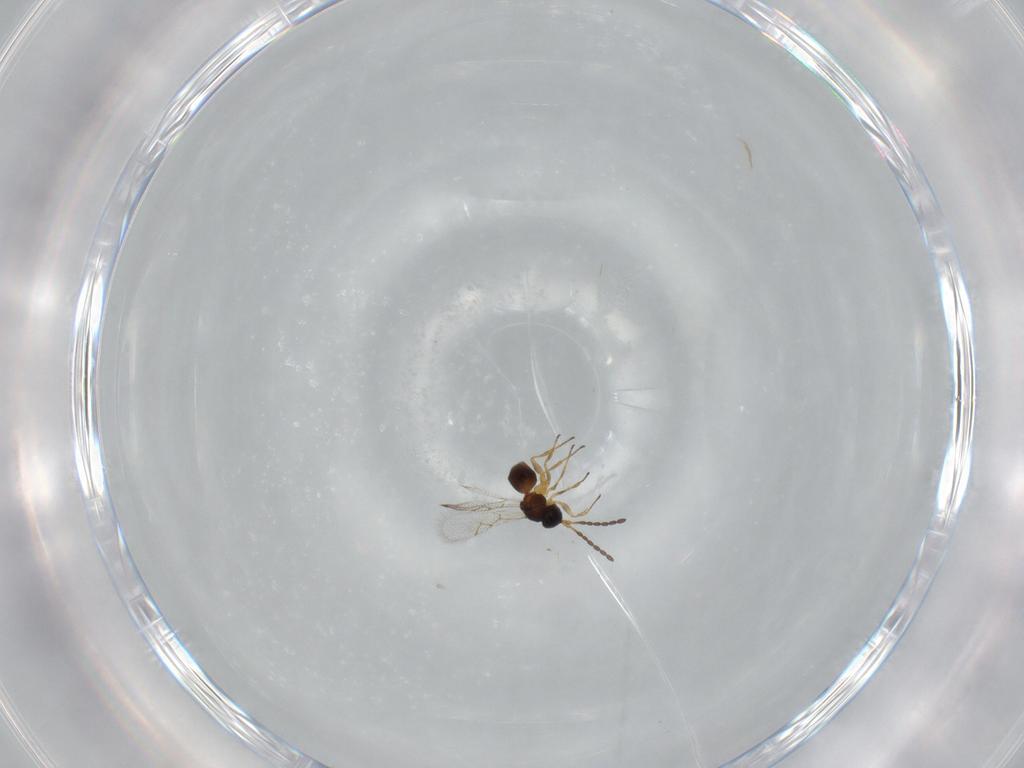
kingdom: Animalia
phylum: Arthropoda
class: Insecta
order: Hymenoptera
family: Figitidae
